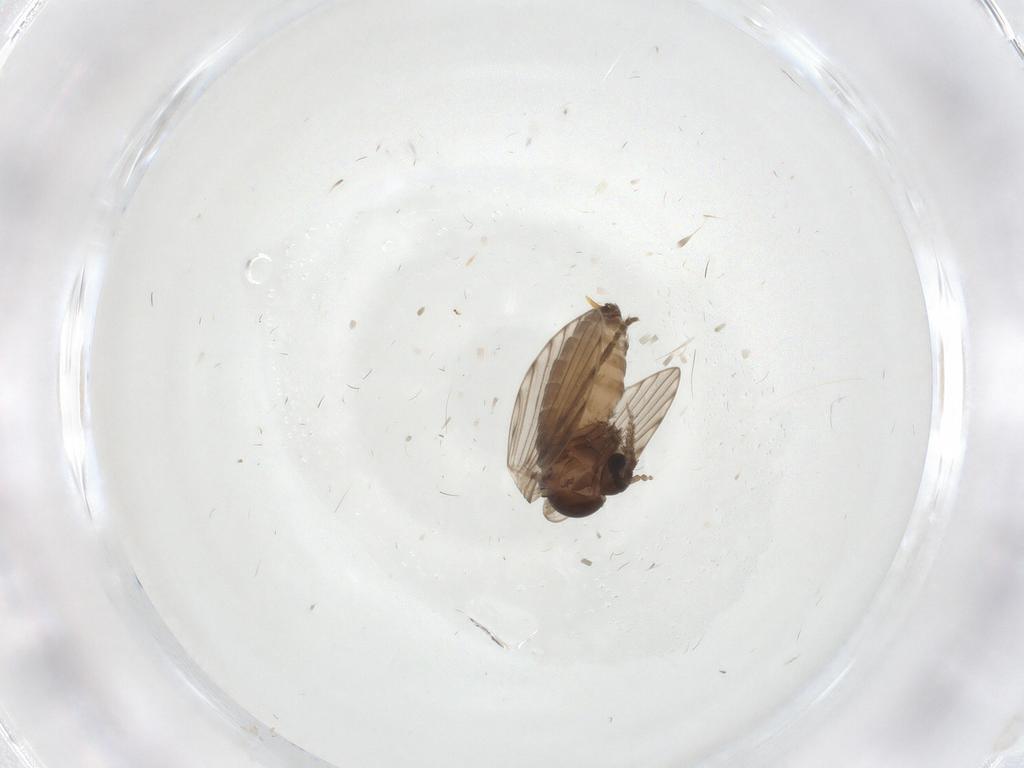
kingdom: Animalia
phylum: Arthropoda
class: Insecta
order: Diptera
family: Psychodidae
